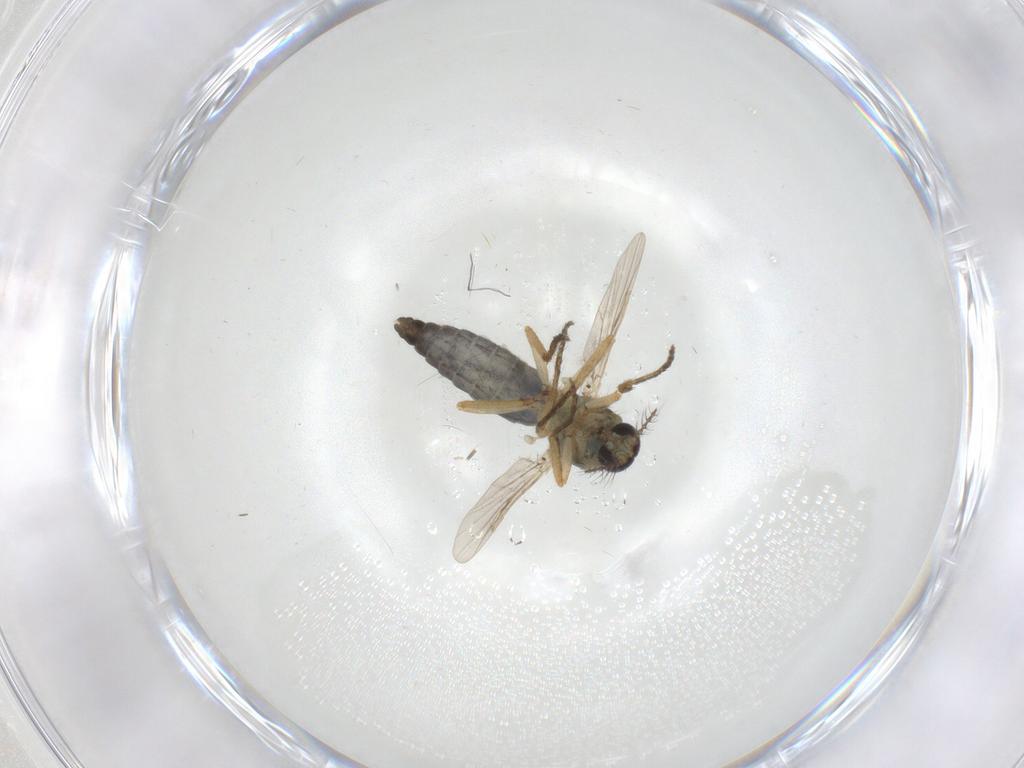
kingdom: Animalia
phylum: Arthropoda
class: Insecta
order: Diptera
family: Ceratopogonidae
